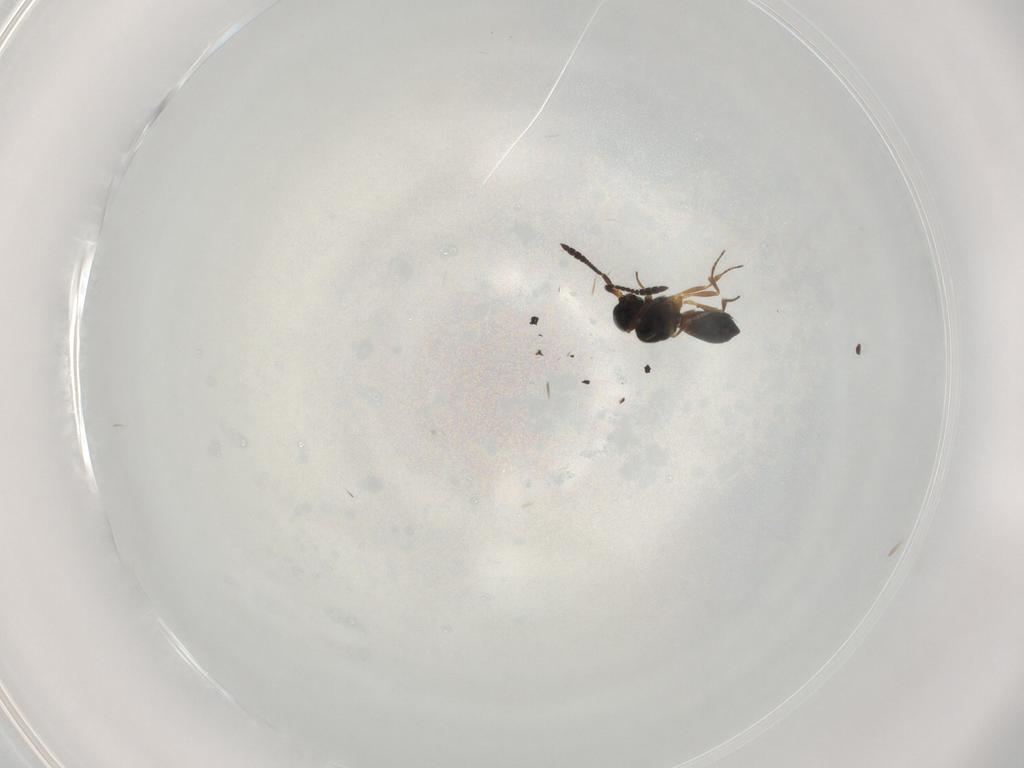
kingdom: Animalia
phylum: Arthropoda
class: Insecta
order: Hymenoptera
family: Scelionidae
